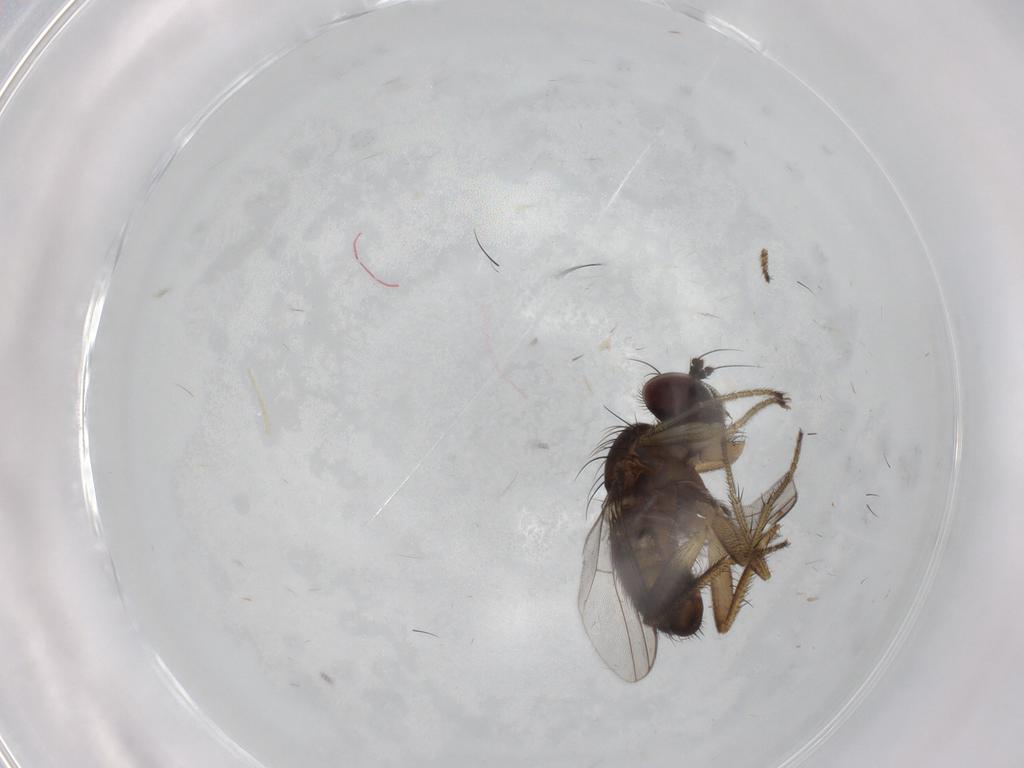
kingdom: Animalia
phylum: Arthropoda
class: Insecta
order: Diptera
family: Dolichopodidae
